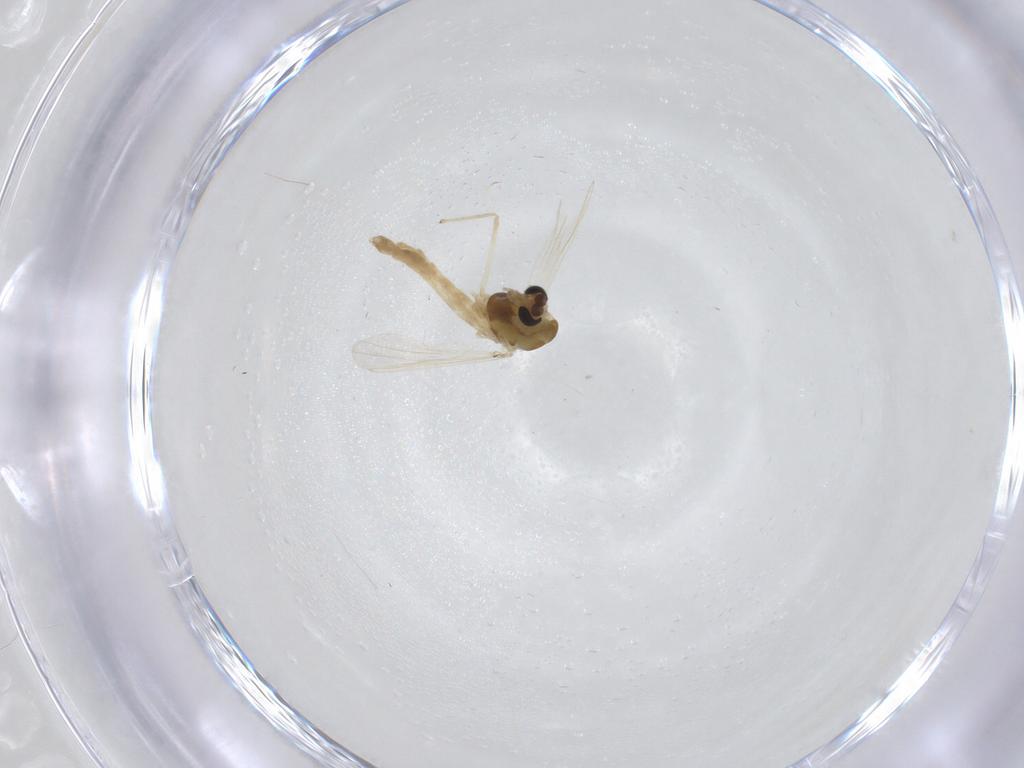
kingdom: Animalia
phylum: Arthropoda
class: Insecta
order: Diptera
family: Chironomidae
